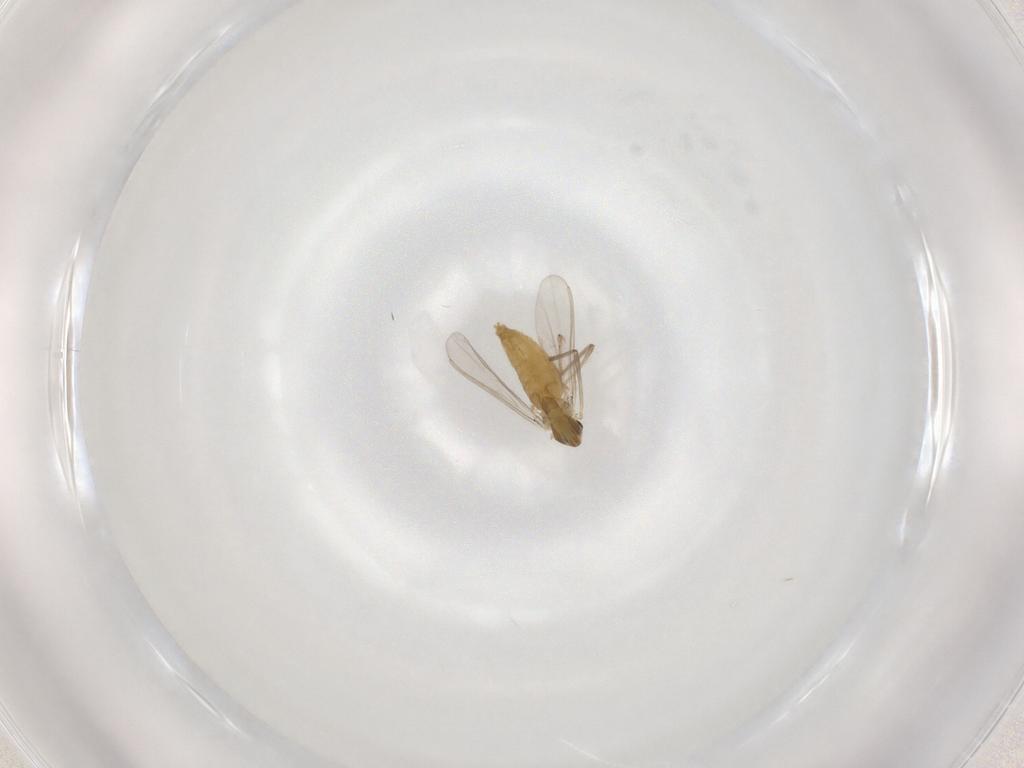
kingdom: Animalia
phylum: Arthropoda
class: Insecta
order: Diptera
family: Chironomidae
